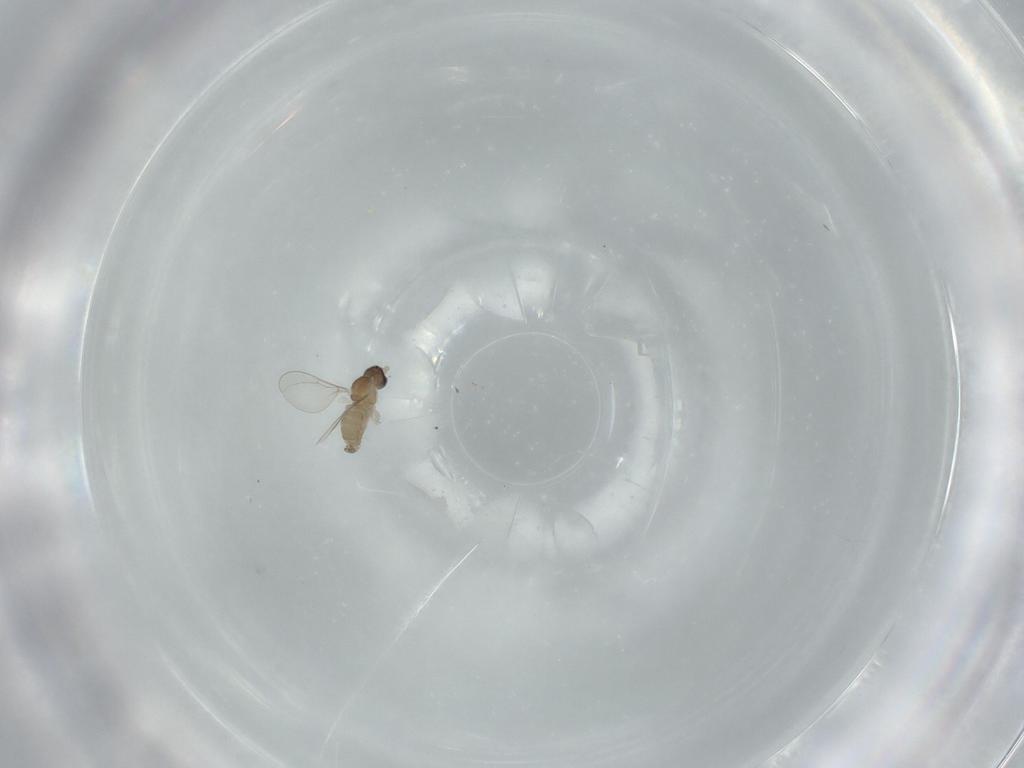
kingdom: Animalia
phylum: Arthropoda
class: Insecta
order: Diptera
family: Cecidomyiidae
